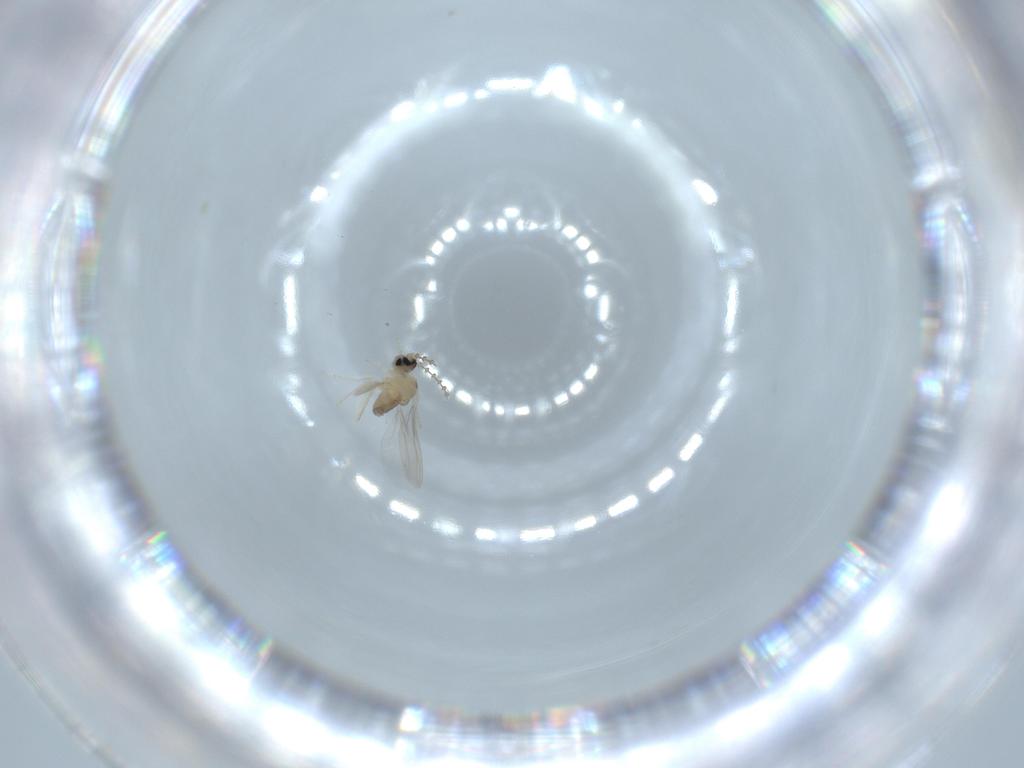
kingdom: Animalia
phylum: Arthropoda
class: Insecta
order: Diptera
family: Cecidomyiidae
